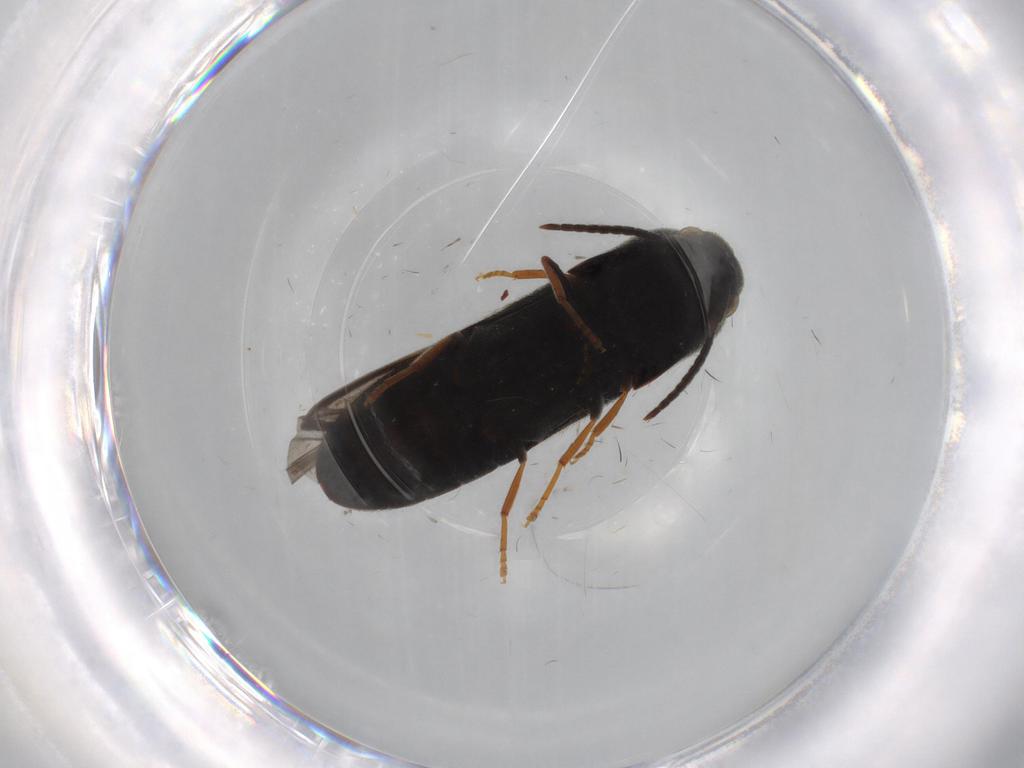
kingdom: Animalia
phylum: Arthropoda
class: Insecta
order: Coleoptera
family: Eucnemidae
